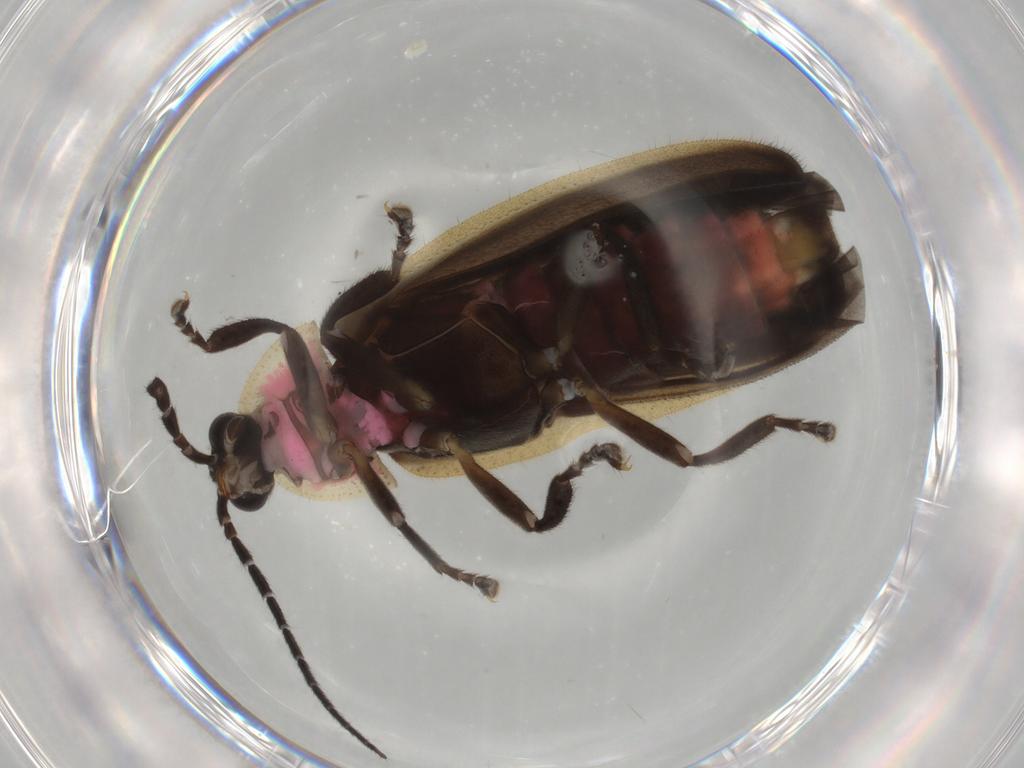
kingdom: Animalia
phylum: Arthropoda
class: Insecta
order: Coleoptera
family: Lampyridae
